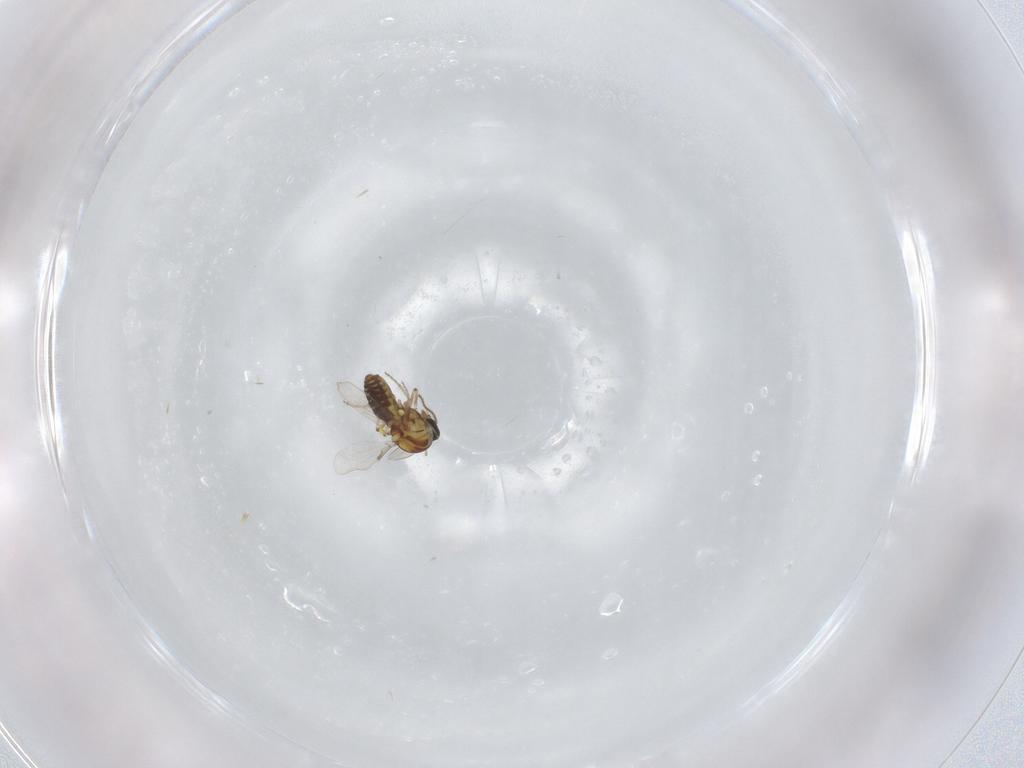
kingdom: Animalia
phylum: Arthropoda
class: Insecta
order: Diptera
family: Ceratopogonidae
